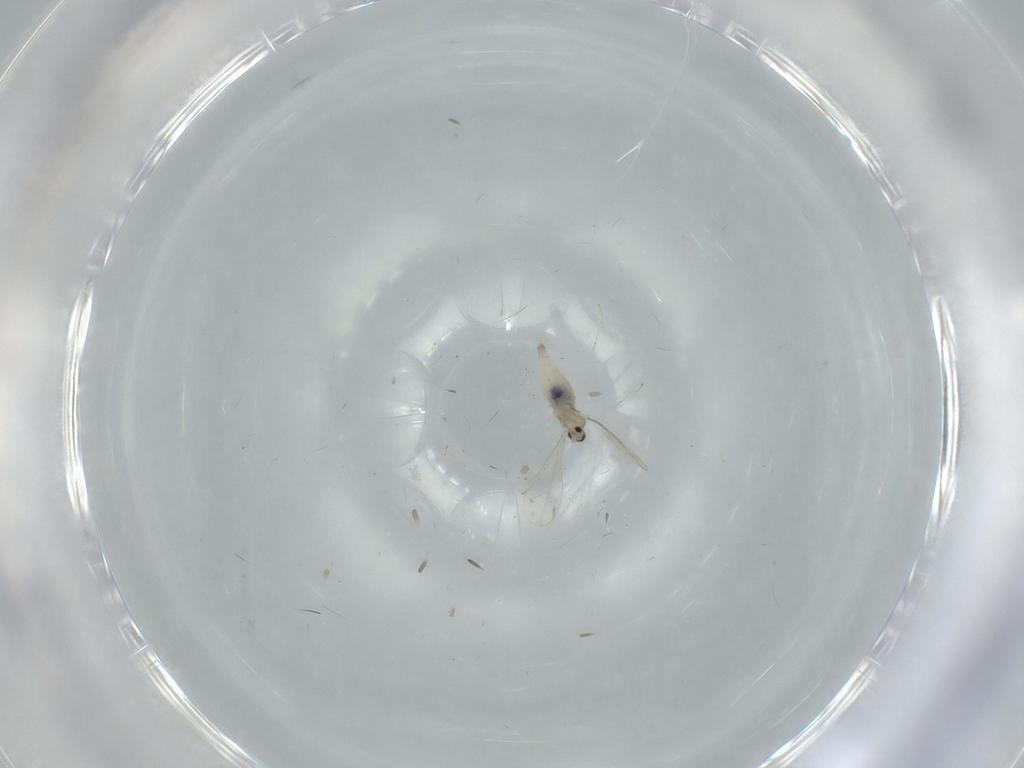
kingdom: Animalia
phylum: Arthropoda
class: Insecta
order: Diptera
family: Cecidomyiidae
